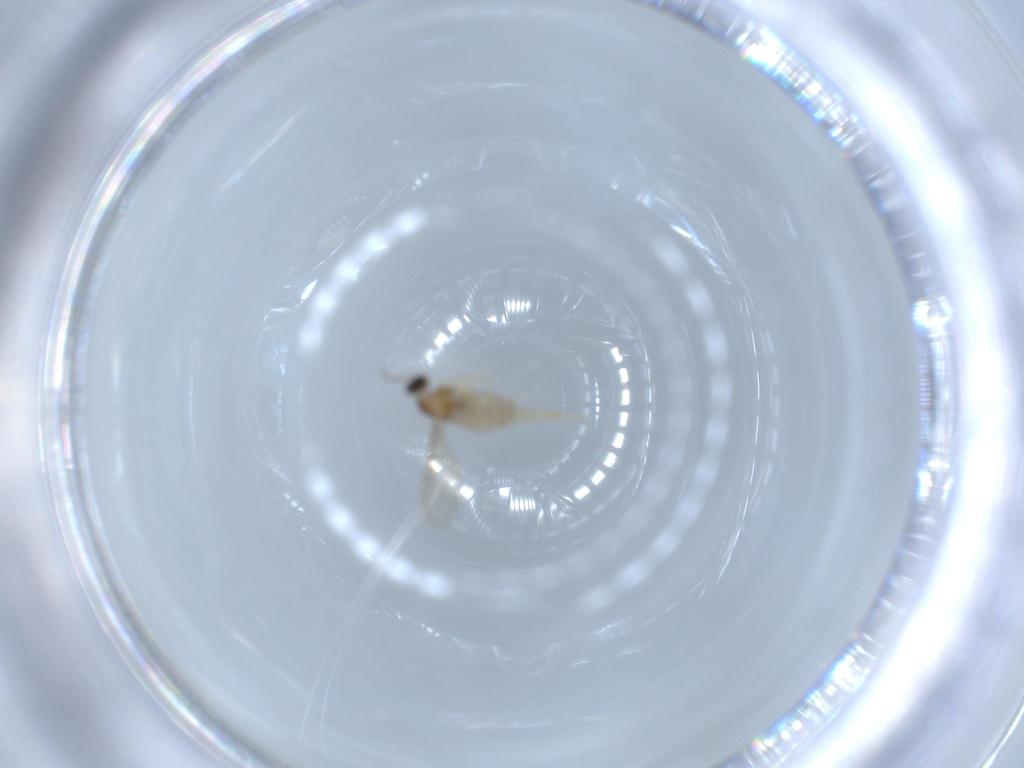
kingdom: Animalia
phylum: Arthropoda
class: Insecta
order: Diptera
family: Cecidomyiidae
